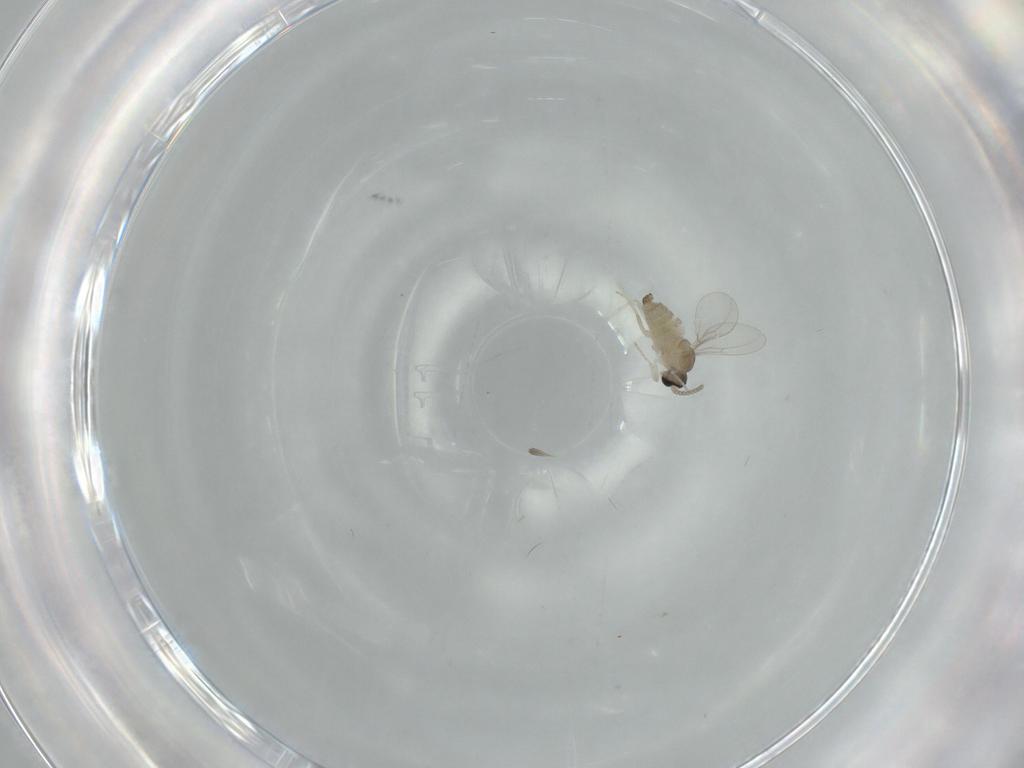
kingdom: Animalia
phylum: Arthropoda
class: Insecta
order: Diptera
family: Cecidomyiidae
